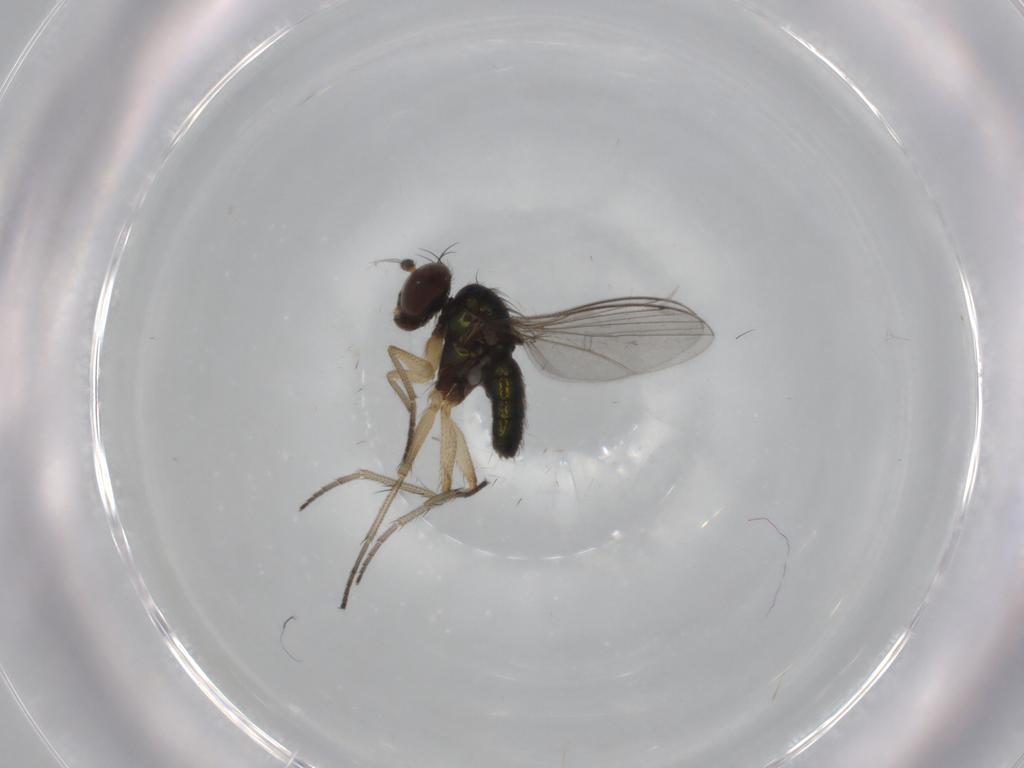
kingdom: Animalia
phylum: Arthropoda
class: Insecta
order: Diptera
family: Dolichopodidae
